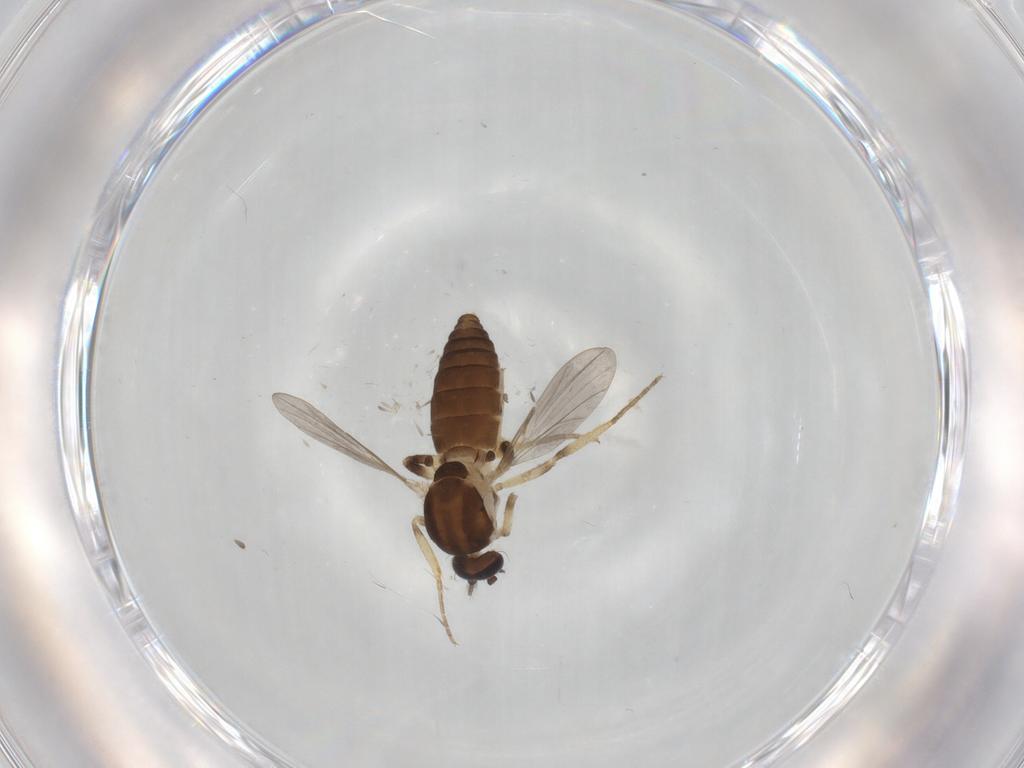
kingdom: Animalia
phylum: Arthropoda
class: Insecta
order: Diptera
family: Ceratopogonidae
